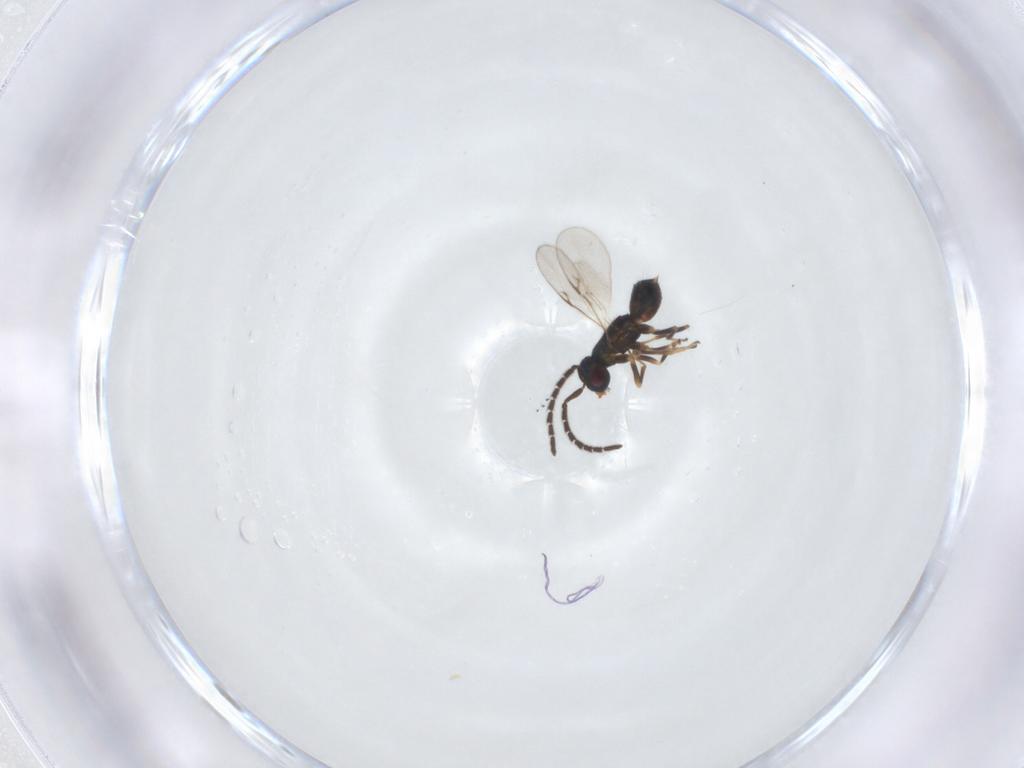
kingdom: Animalia
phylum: Arthropoda
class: Insecta
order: Hymenoptera
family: Encyrtidae
